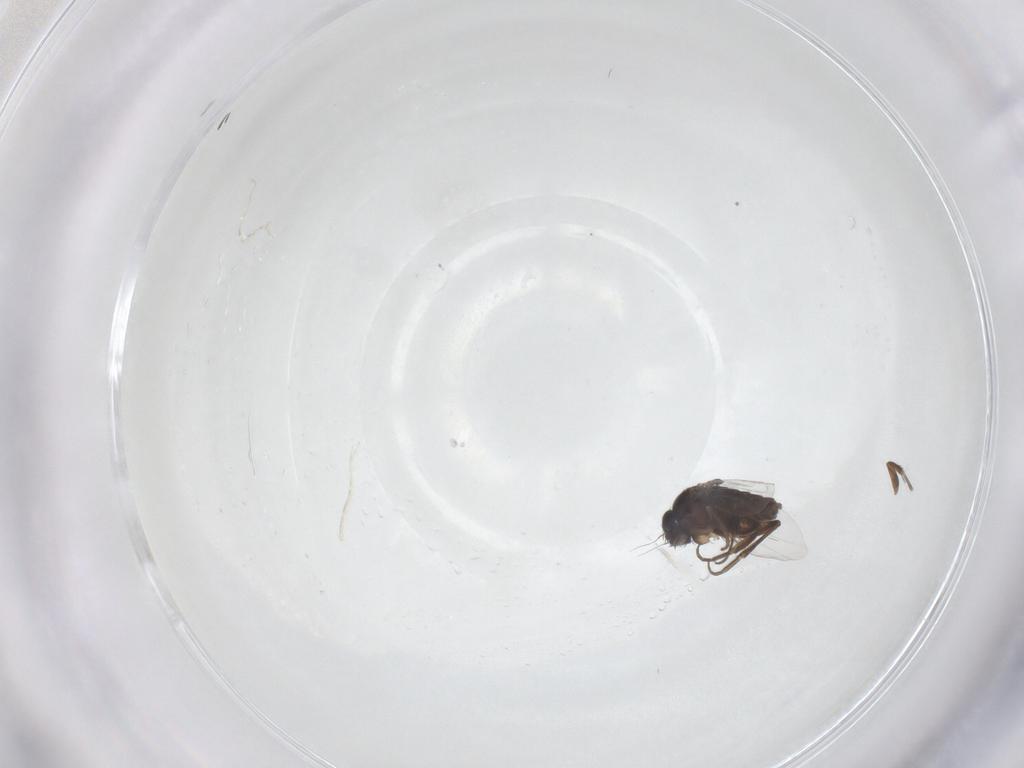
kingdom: Animalia
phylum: Arthropoda
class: Insecta
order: Diptera
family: Phoridae
